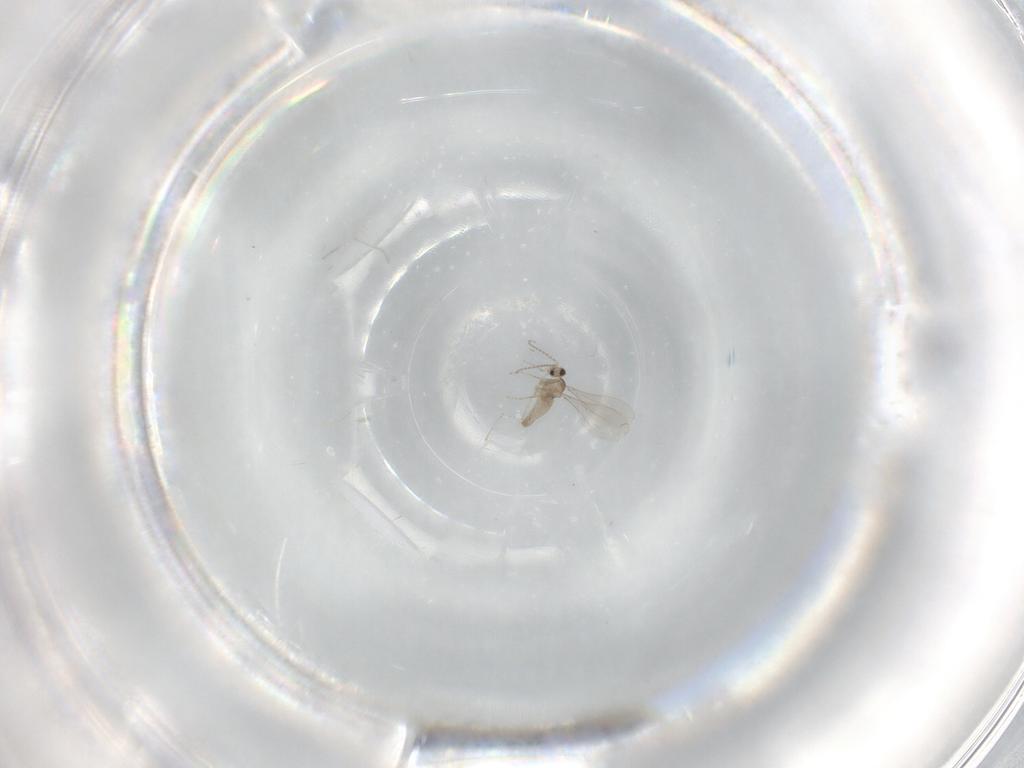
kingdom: Animalia
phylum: Arthropoda
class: Insecta
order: Diptera
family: Cecidomyiidae
